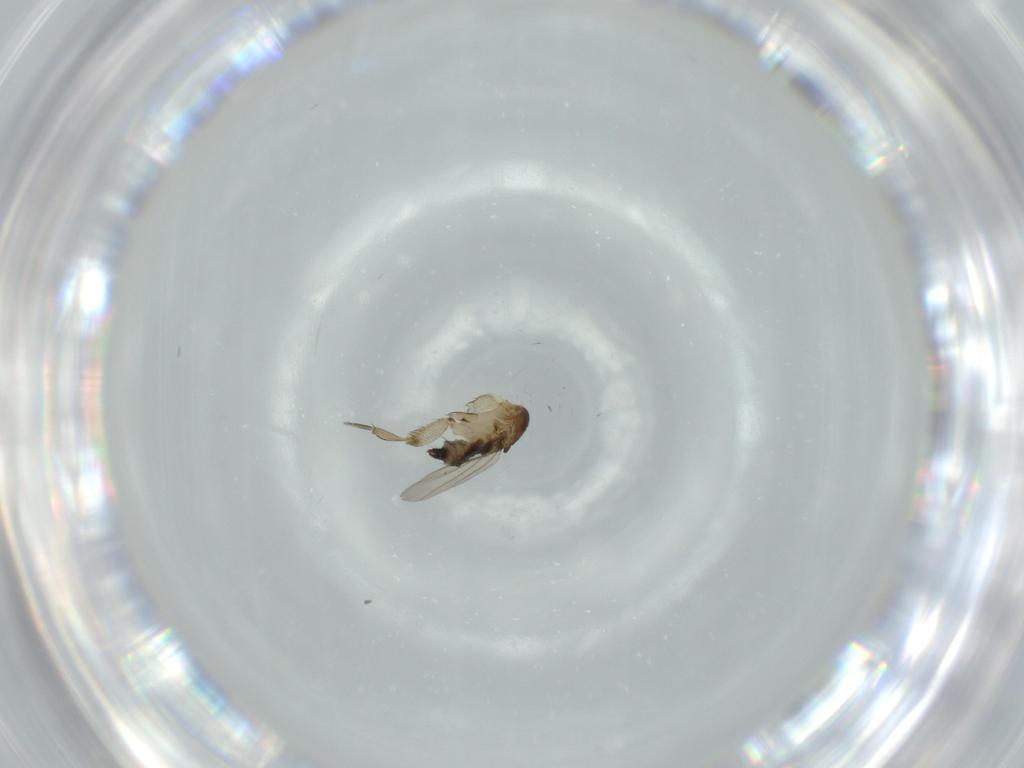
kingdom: Animalia
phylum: Arthropoda
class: Insecta
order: Diptera
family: Phoridae
